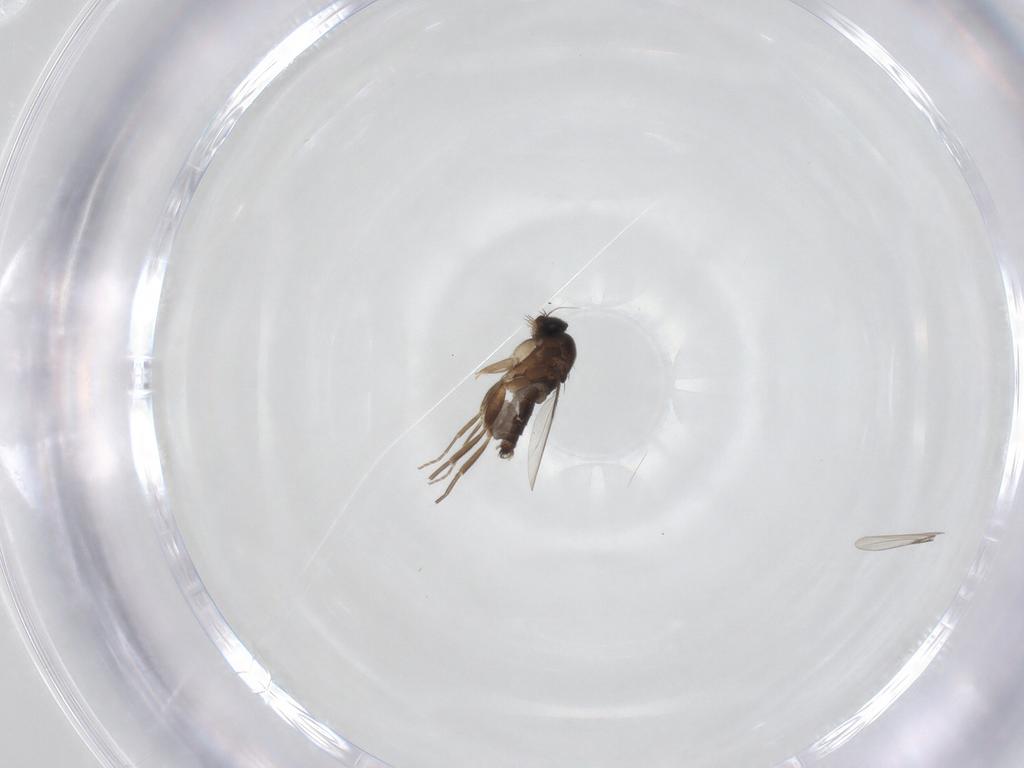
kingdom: Animalia
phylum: Arthropoda
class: Insecta
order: Diptera
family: Phoridae
